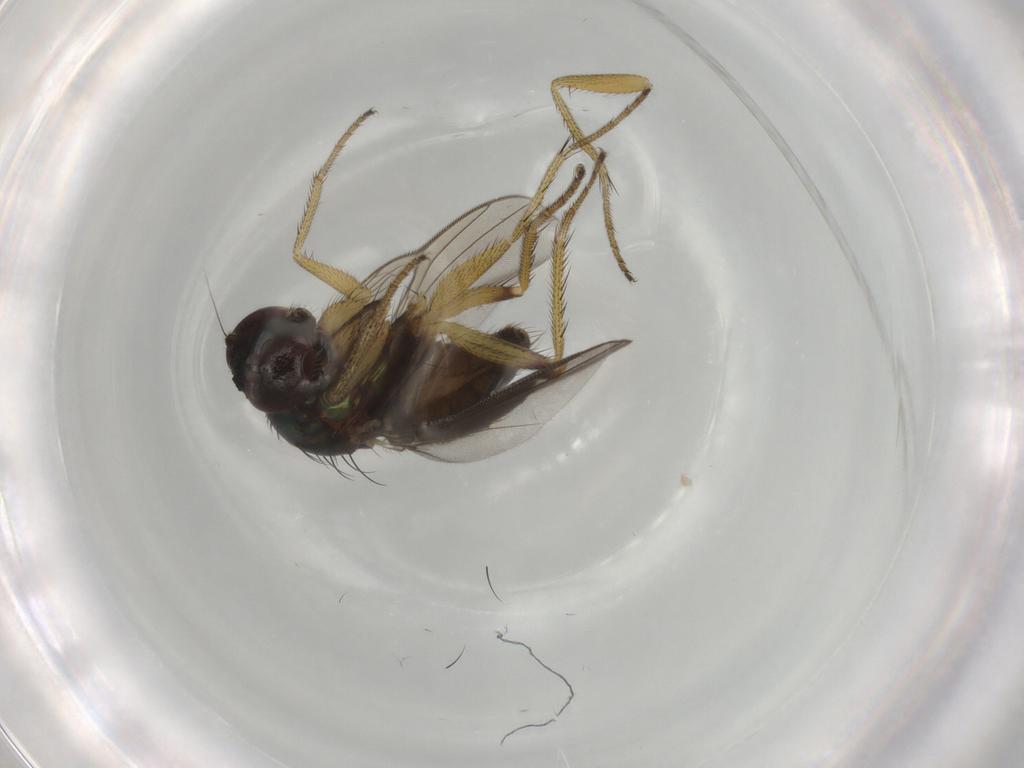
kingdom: Animalia
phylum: Arthropoda
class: Insecta
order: Diptera
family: Dolichopodidae
